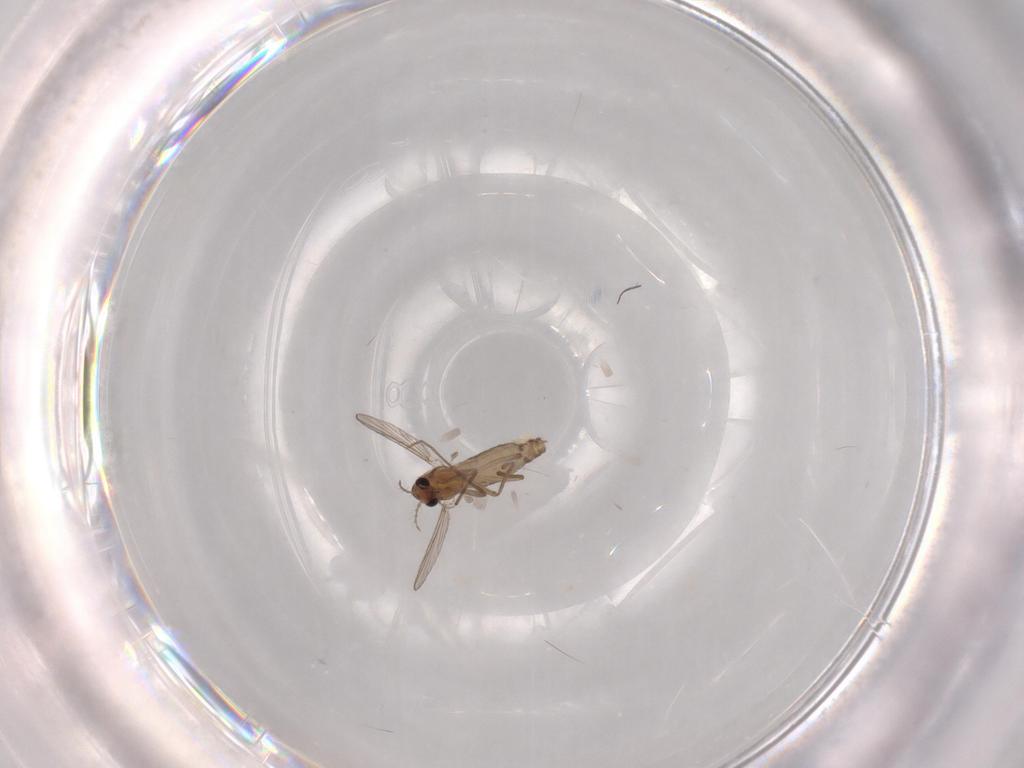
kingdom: Animalia
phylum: Arthropoda
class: Insecta
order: Diptera
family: Chironomidae
